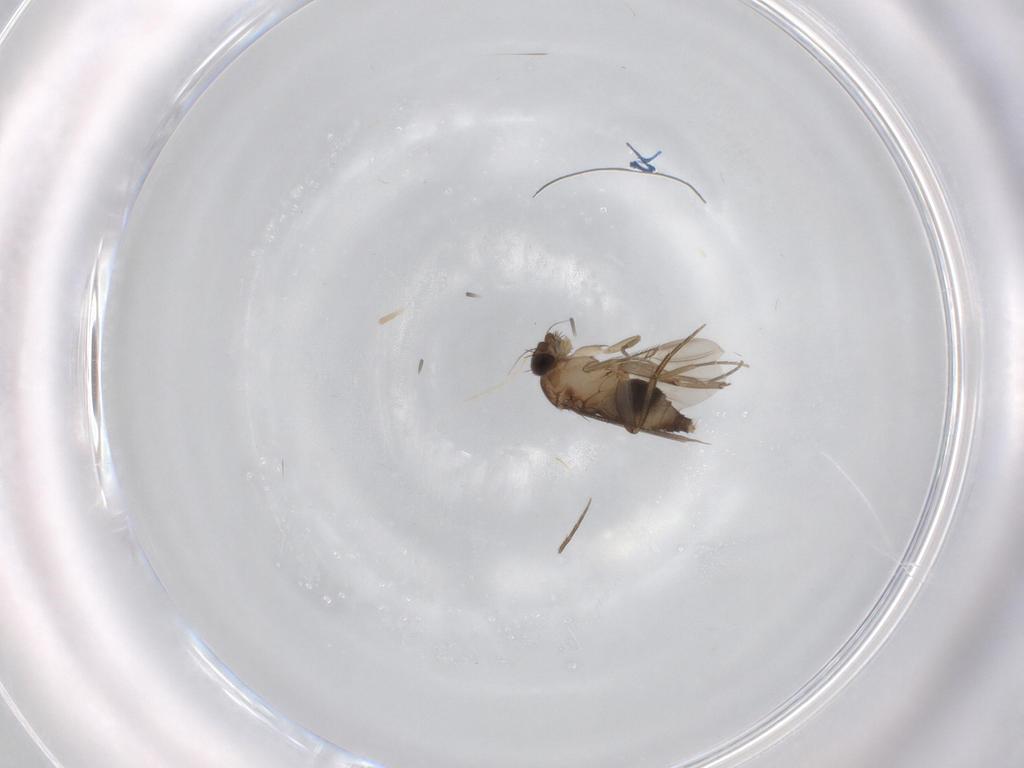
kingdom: Animalia
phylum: Arthropoda
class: Insecta
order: Diptera
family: Phoridae
